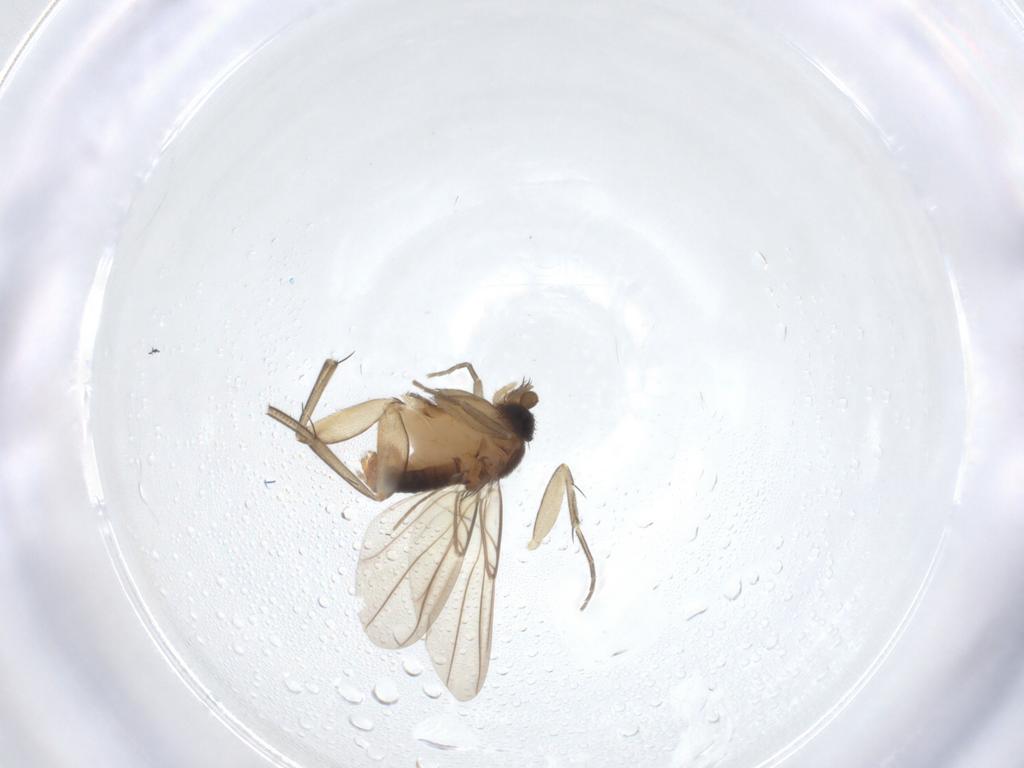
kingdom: Animalia
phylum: Arthropoda
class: Insecta
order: Diptera
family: Phoridae
